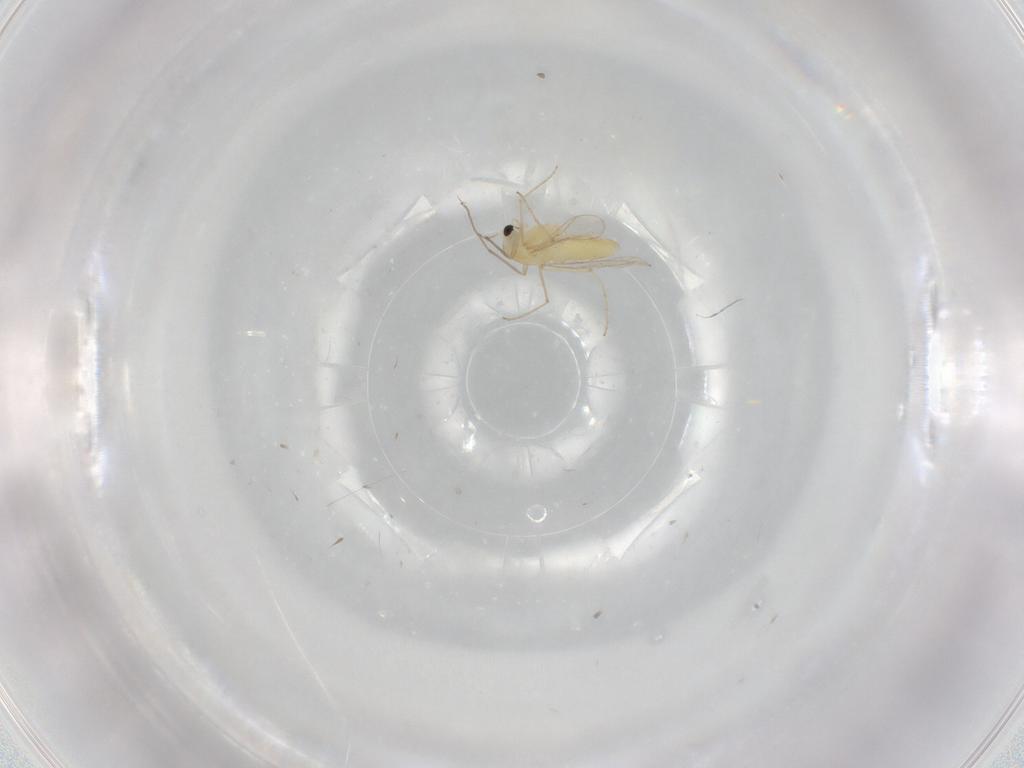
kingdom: Animalia
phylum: Arthropoda
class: Insecta
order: Diptera
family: Chironomidae
